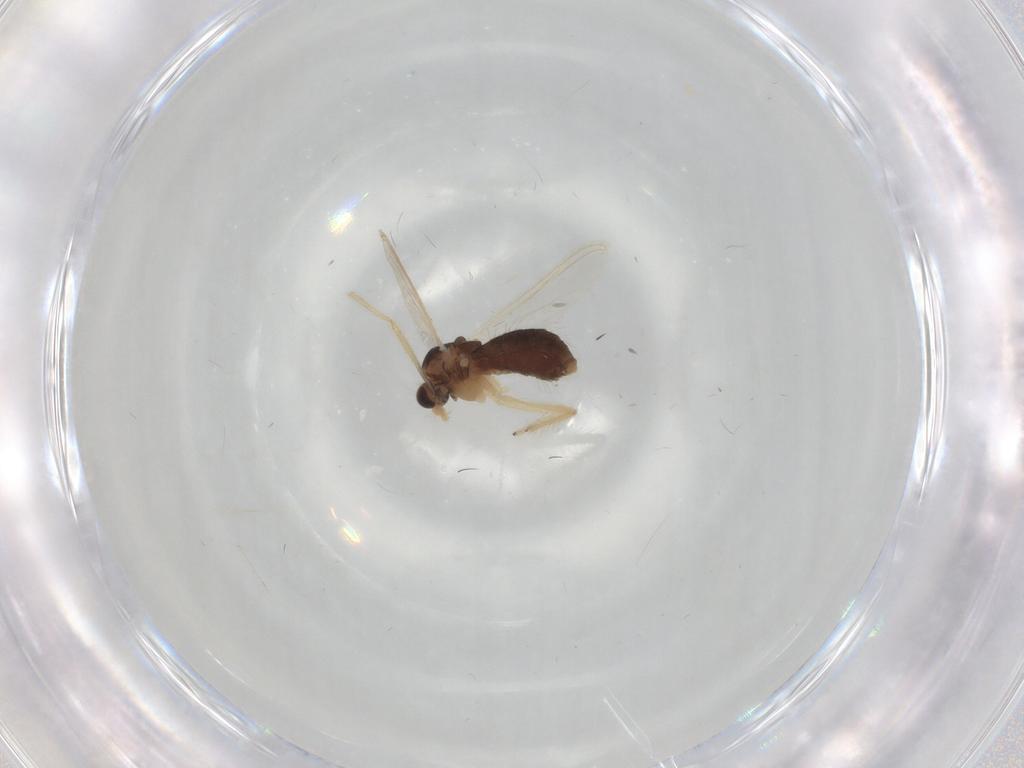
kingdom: Animalia
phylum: Arthropoda
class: Insecta
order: Diptera
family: Chironomidae
